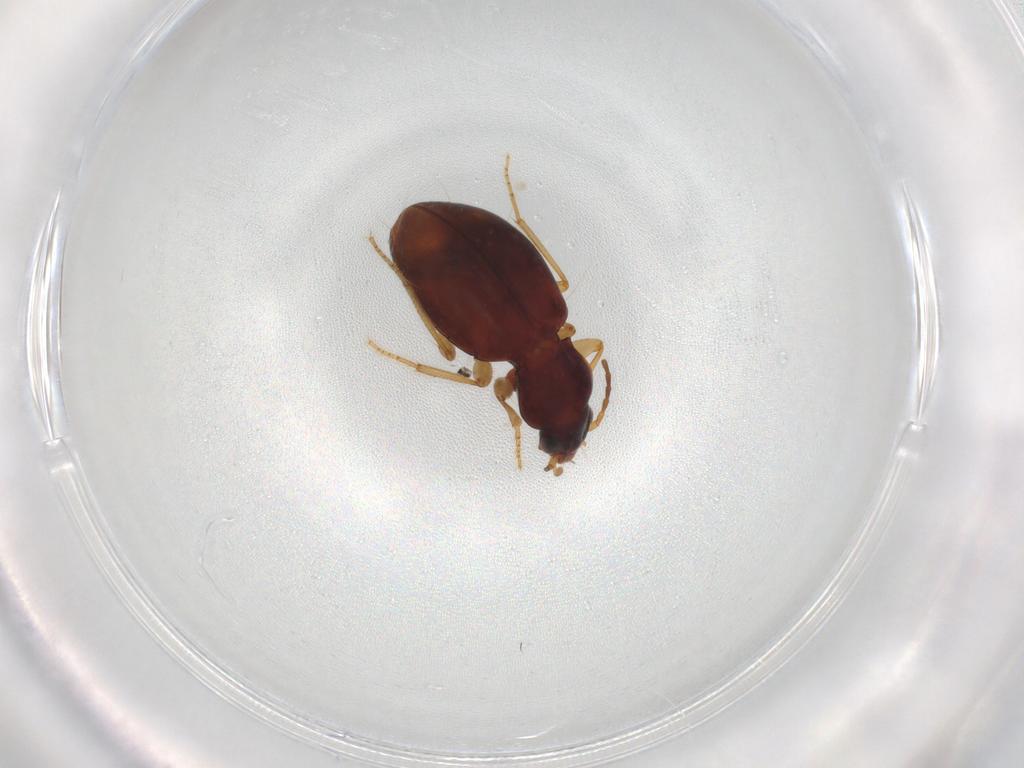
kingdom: Animalia
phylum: Arthropoda
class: Insecta
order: Coleoptera
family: Carabidae
